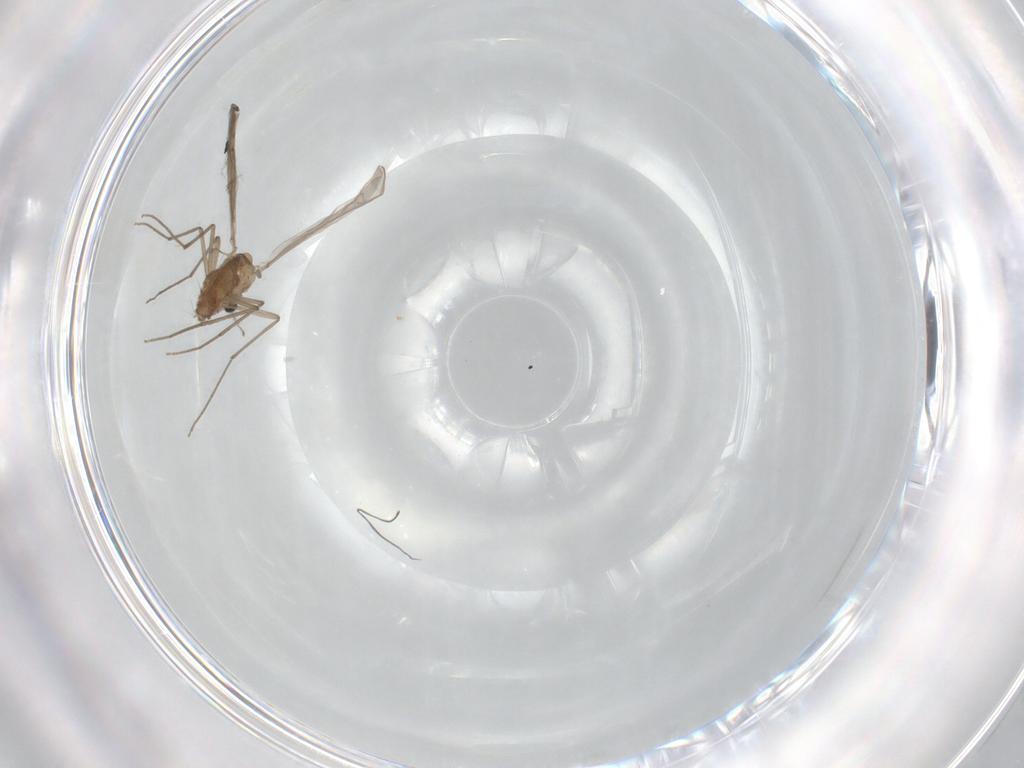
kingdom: Animalia
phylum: Arthropoda
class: Insecta
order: Diptera
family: Chironomidae
